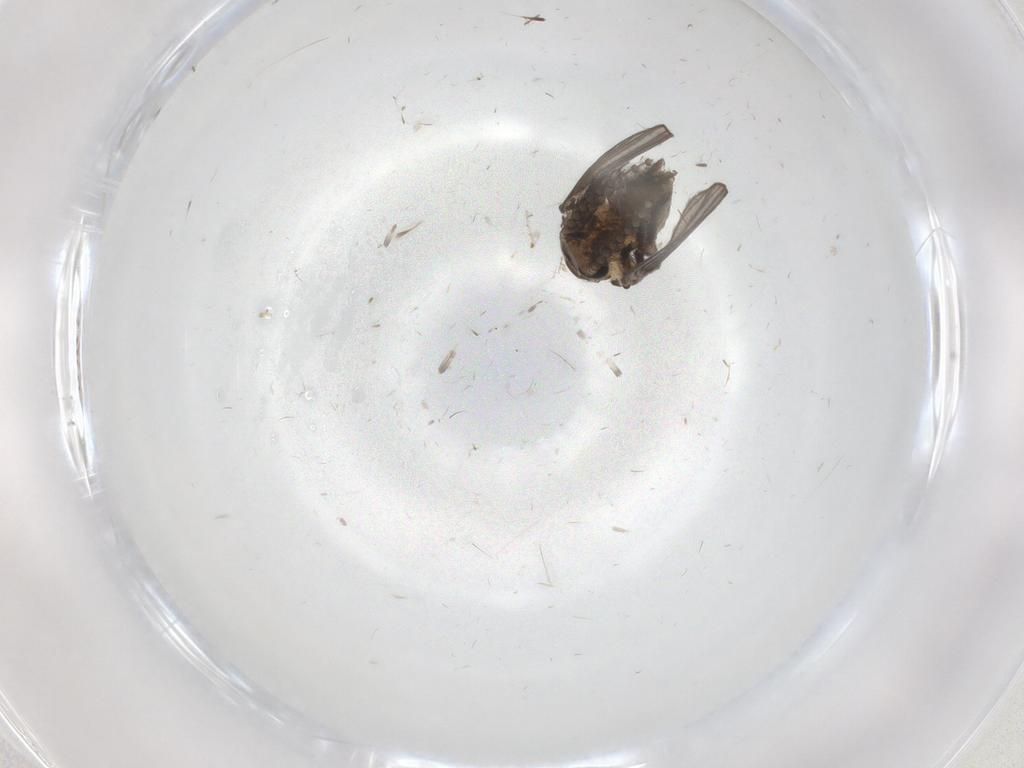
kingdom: Animalia
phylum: Arthropoda
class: Insecta
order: Diptera
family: Psychodidae
